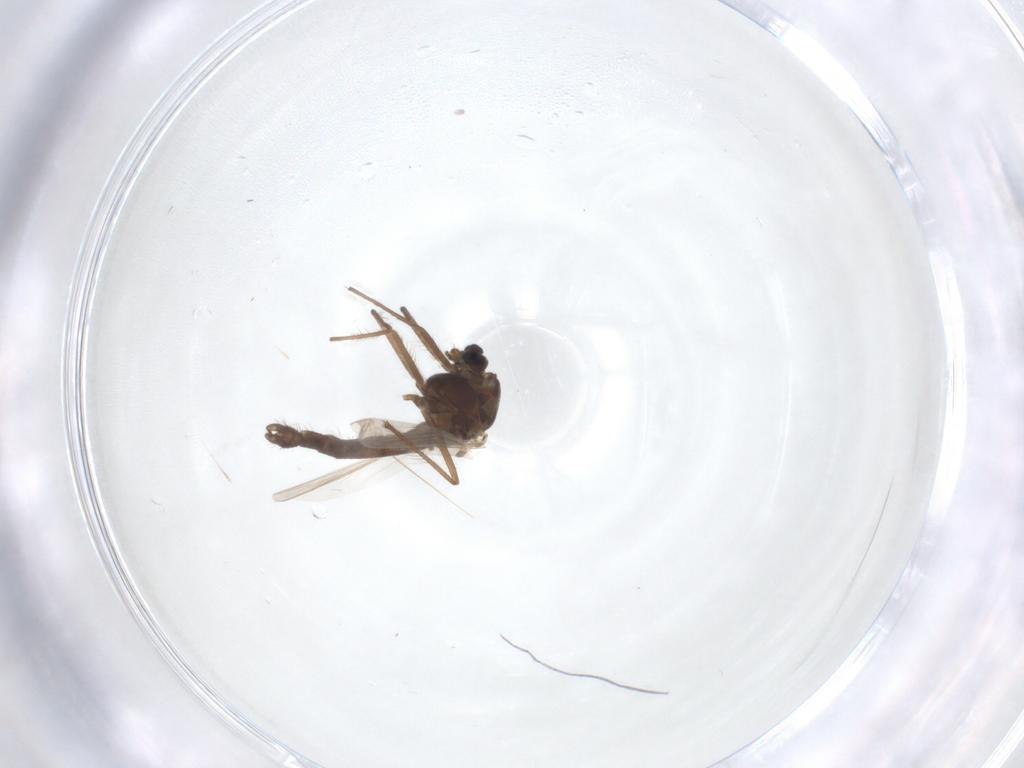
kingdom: Animalia
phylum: Arthropoda
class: Insecta
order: Diptera
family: Chironomidae
